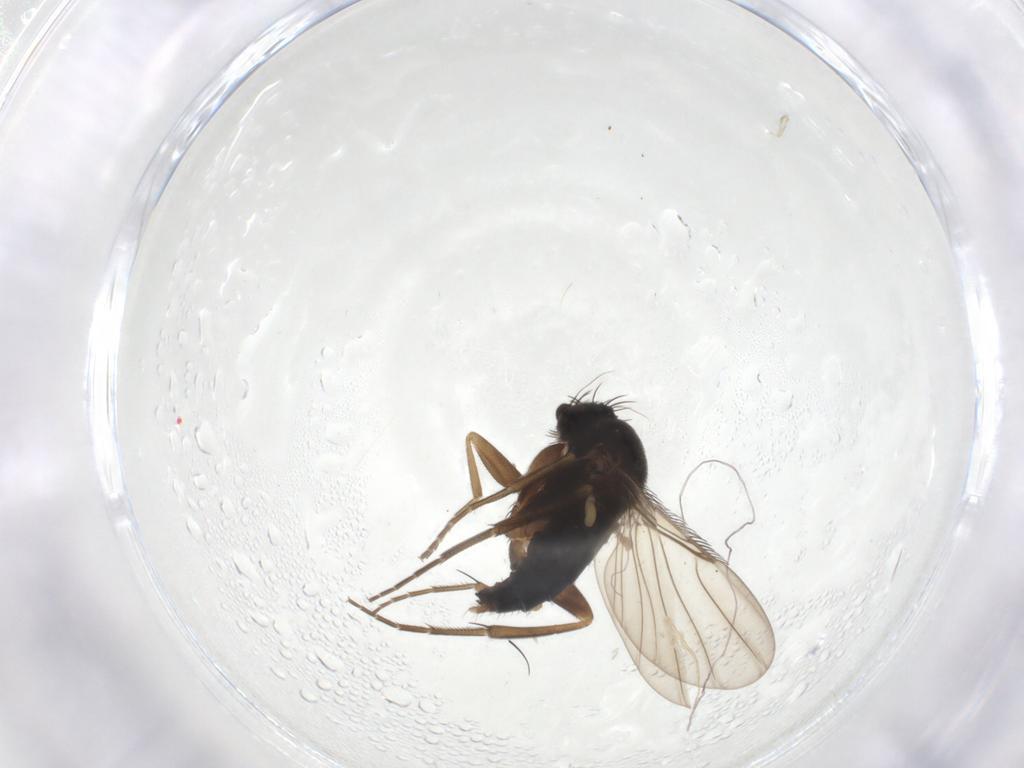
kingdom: Animalia
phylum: Arthropoda
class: Insecta
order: Diptera
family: Phoridae
